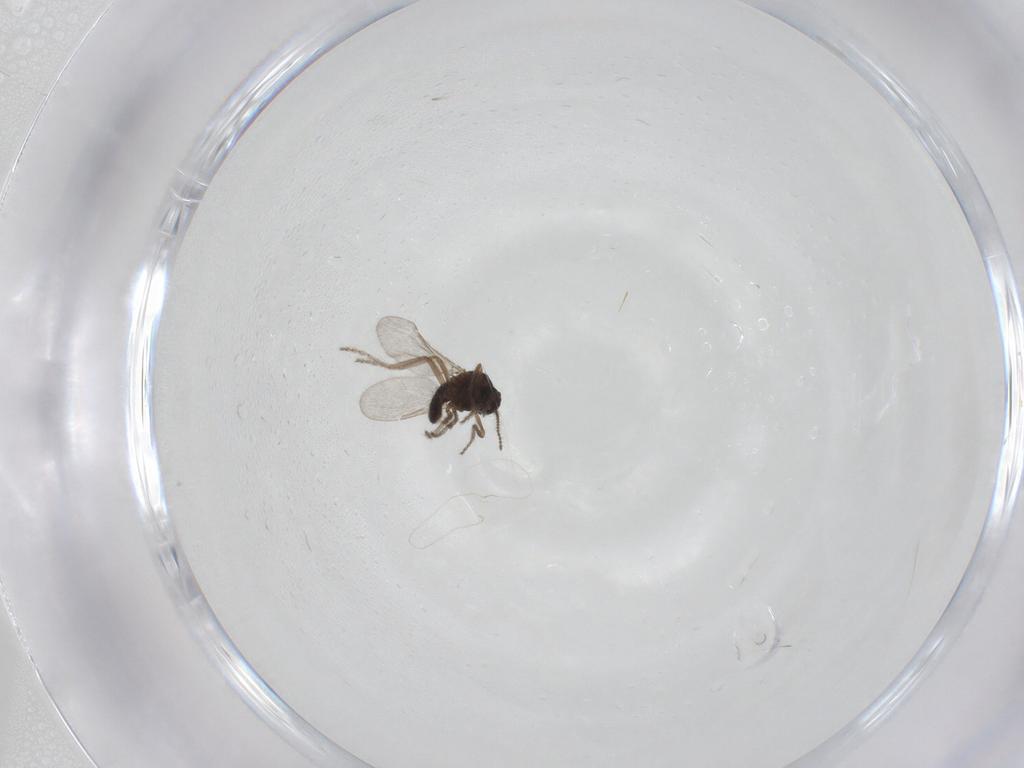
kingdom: Animalia
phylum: Arthropoda
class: Insecta
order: Diptera
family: Ceratopogonidae
